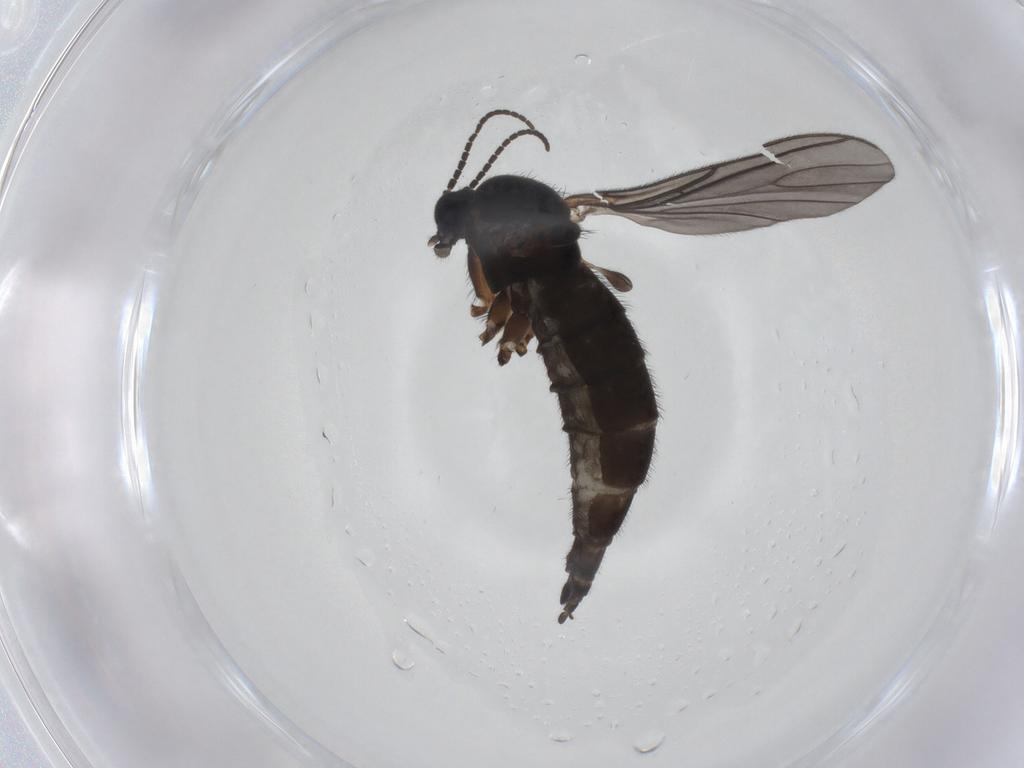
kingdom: Animalia
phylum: Arthropoda
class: Insecta
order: Diptera
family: Sciaridae
